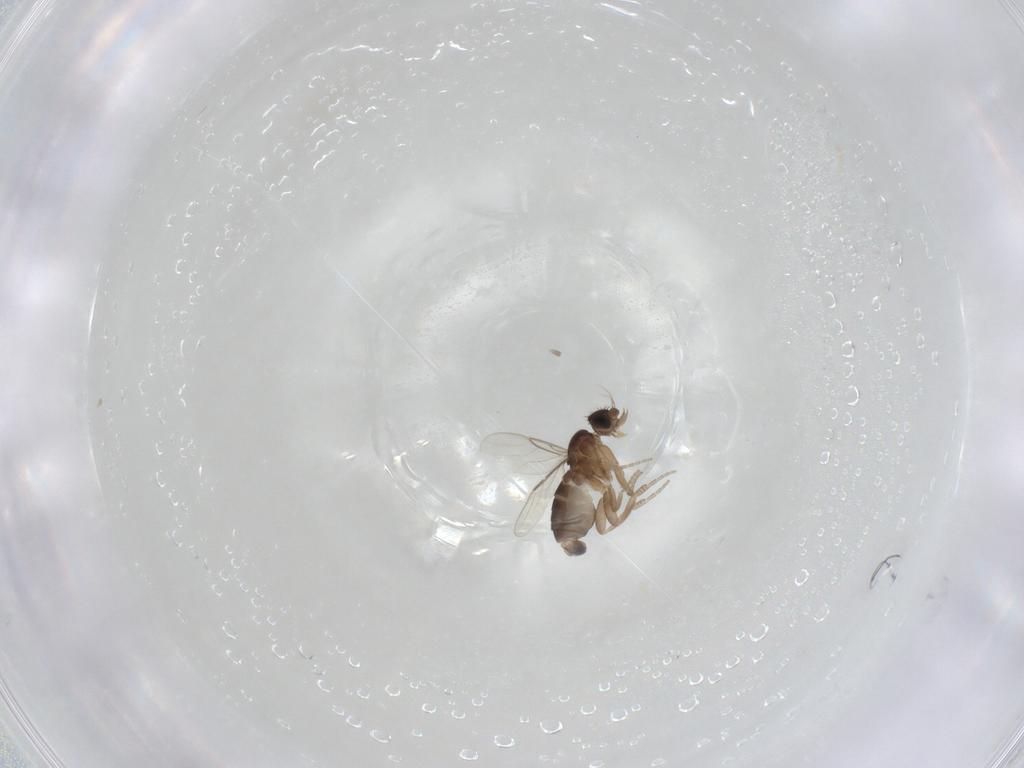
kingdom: Animalia
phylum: Arthropoda
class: Insecta
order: Diptera
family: Phoridae
